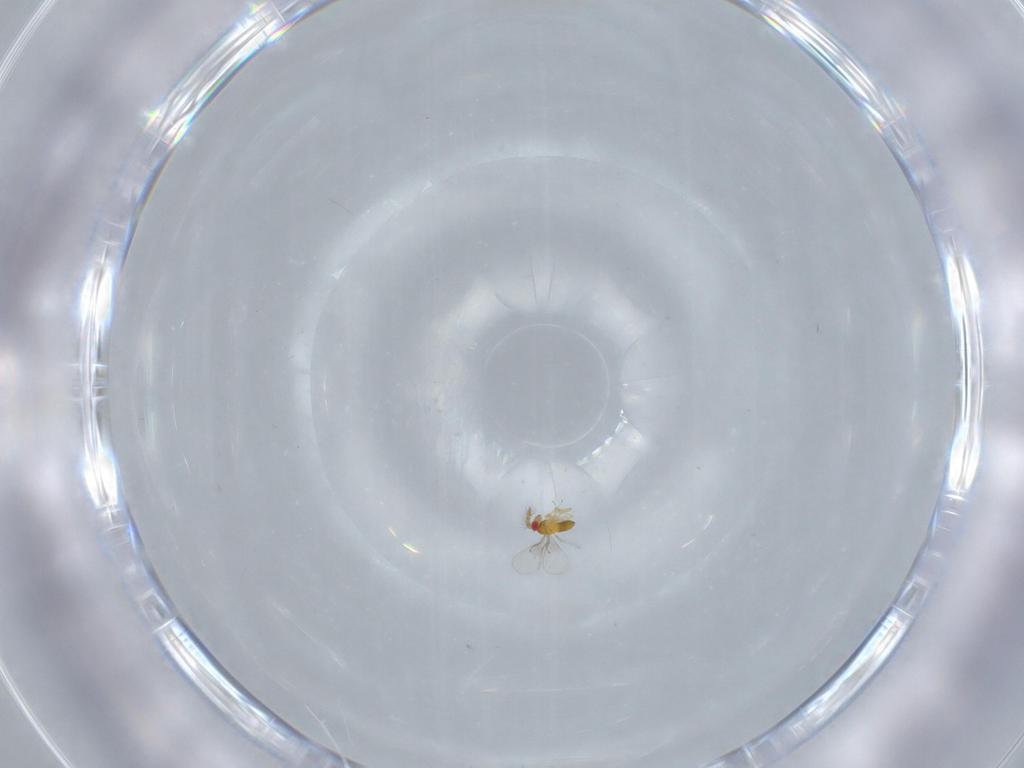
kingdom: Animalia
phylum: Arthropoda
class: Insecta
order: Hymenoptera
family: Trichogrammatidae
